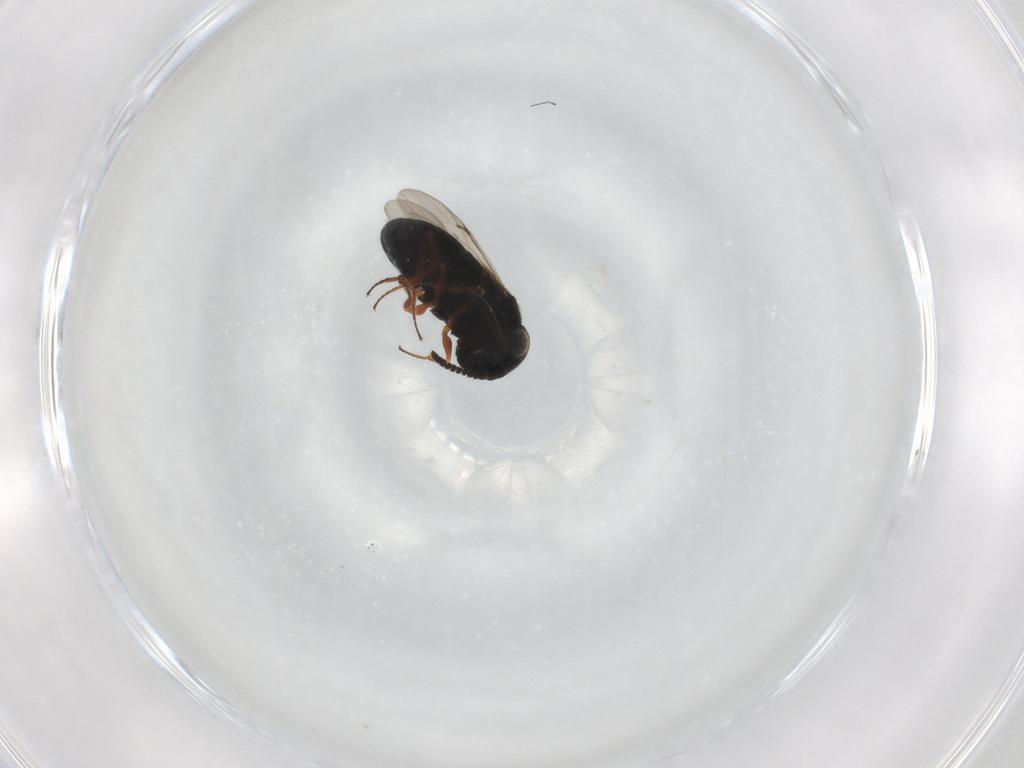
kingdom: Animalia
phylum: Arthropoda
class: Insecta
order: Hymenoptera
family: Scelionidae
